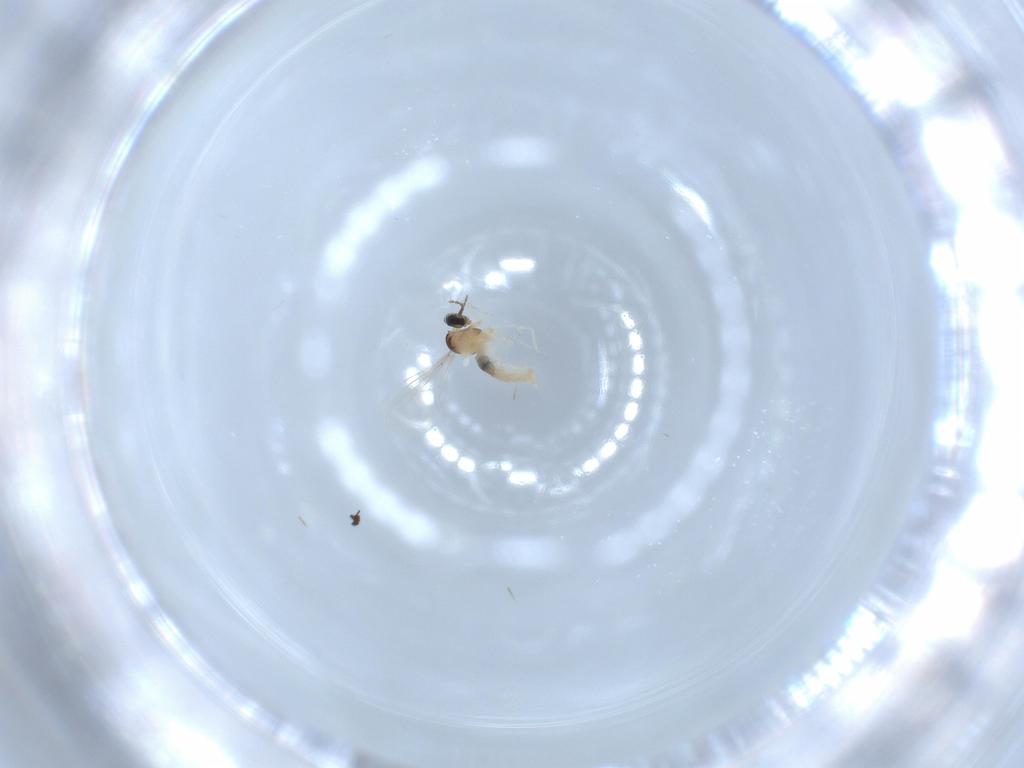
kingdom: Animalia
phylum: Arthropoda
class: Insecta
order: Diptera
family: Cecidomyiidae
